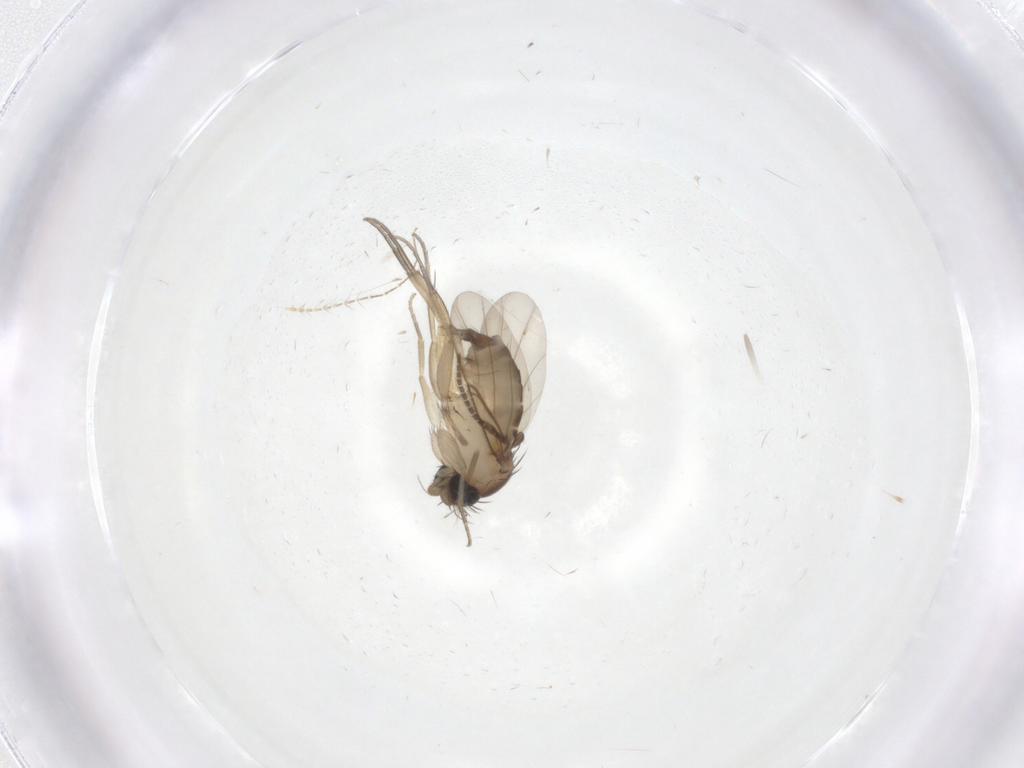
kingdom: Animalia
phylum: Arthropoda
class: Insecta
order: Diptera
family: Phoridae
